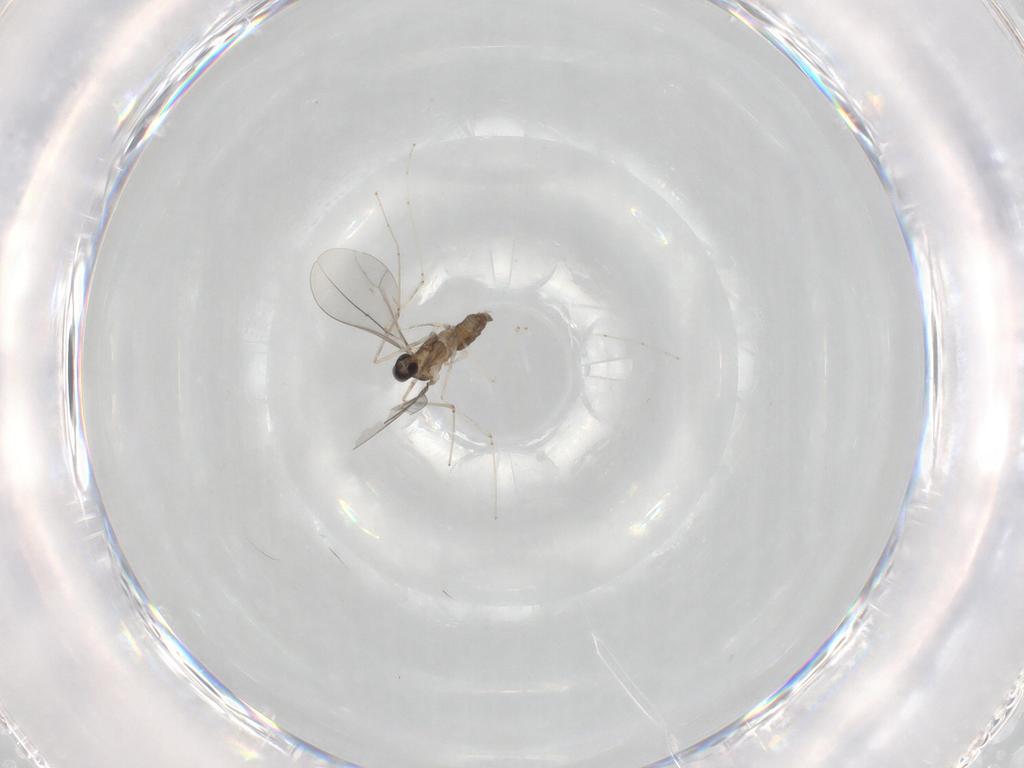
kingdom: Animalia
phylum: Arthropoda
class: Insecta
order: Diptera
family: Cecidomyiidae
